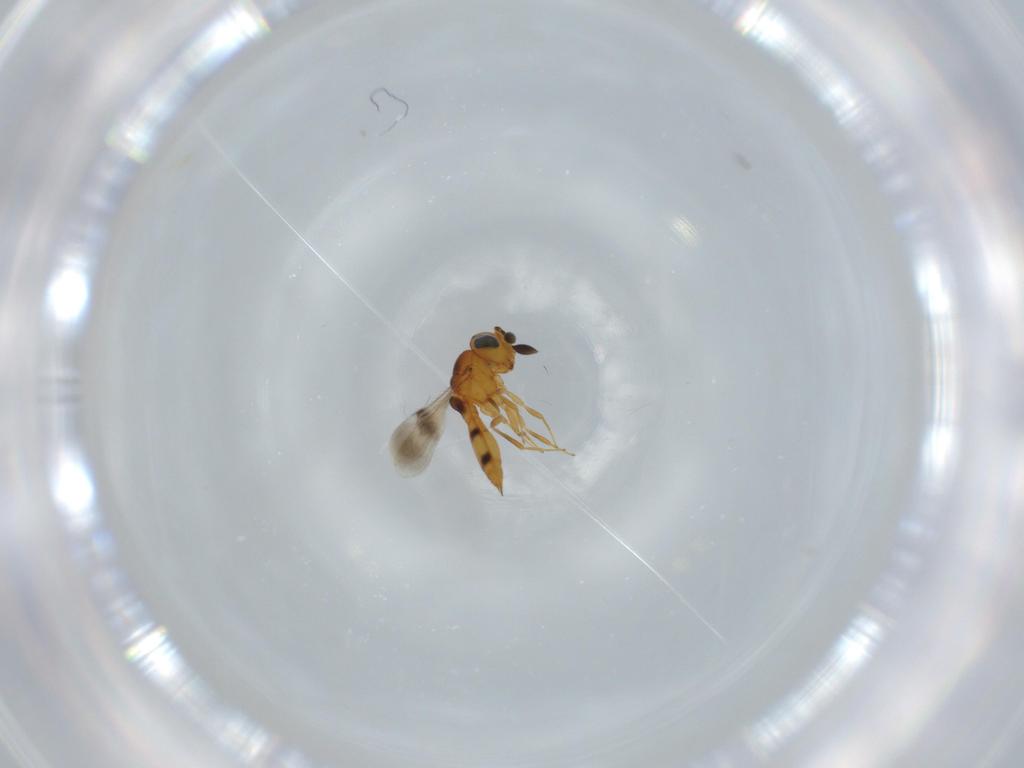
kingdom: Animalia
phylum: Arthropoda
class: Insecta
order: Hymenoptera
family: Scelionidae
